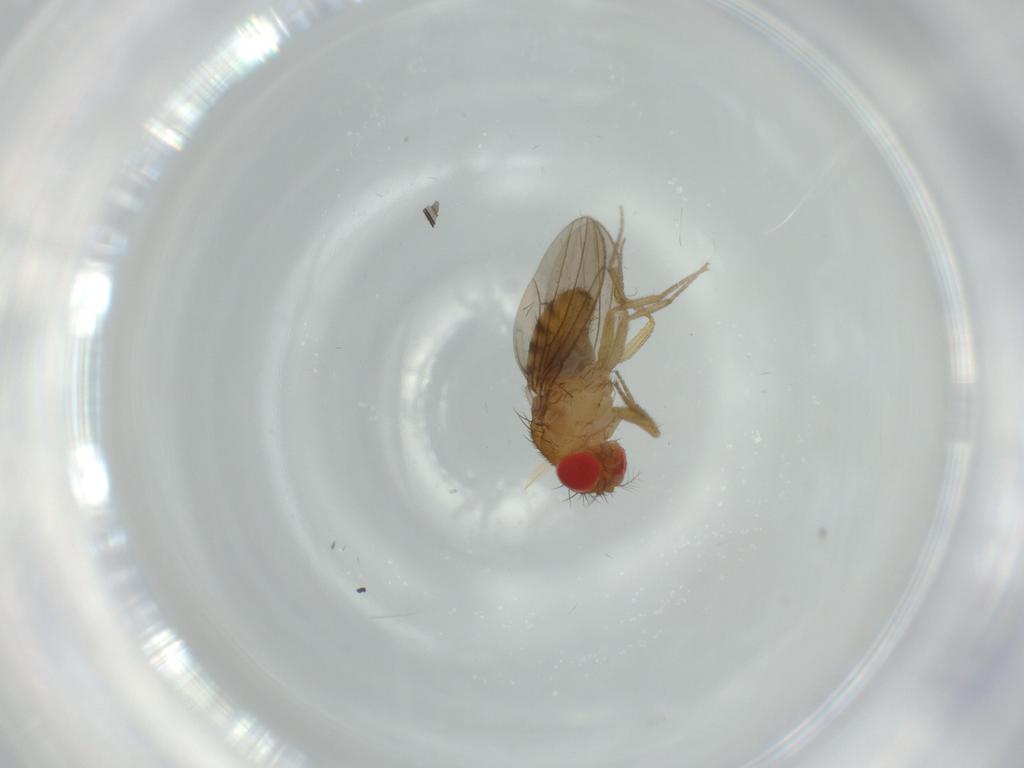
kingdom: Animalia
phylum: Arthropoda
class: Insecta
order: Diptera
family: Drosophilidae
